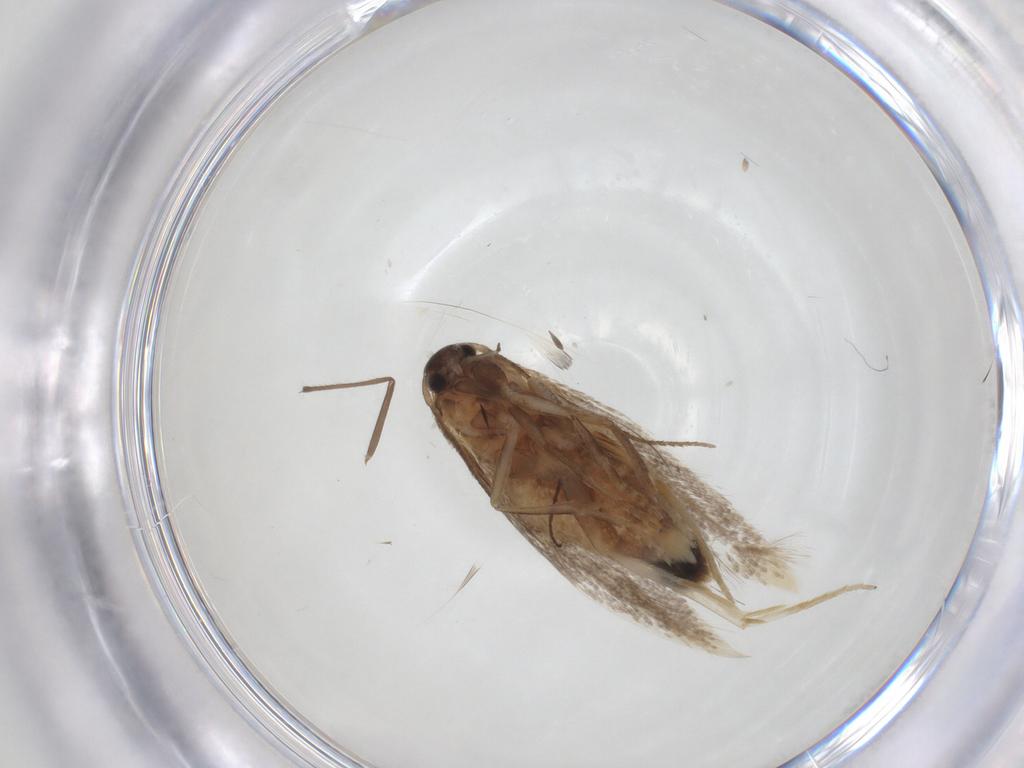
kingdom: Animalia
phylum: Arthropoda
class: Insecta
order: Lepidoptera
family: Elachistidae
